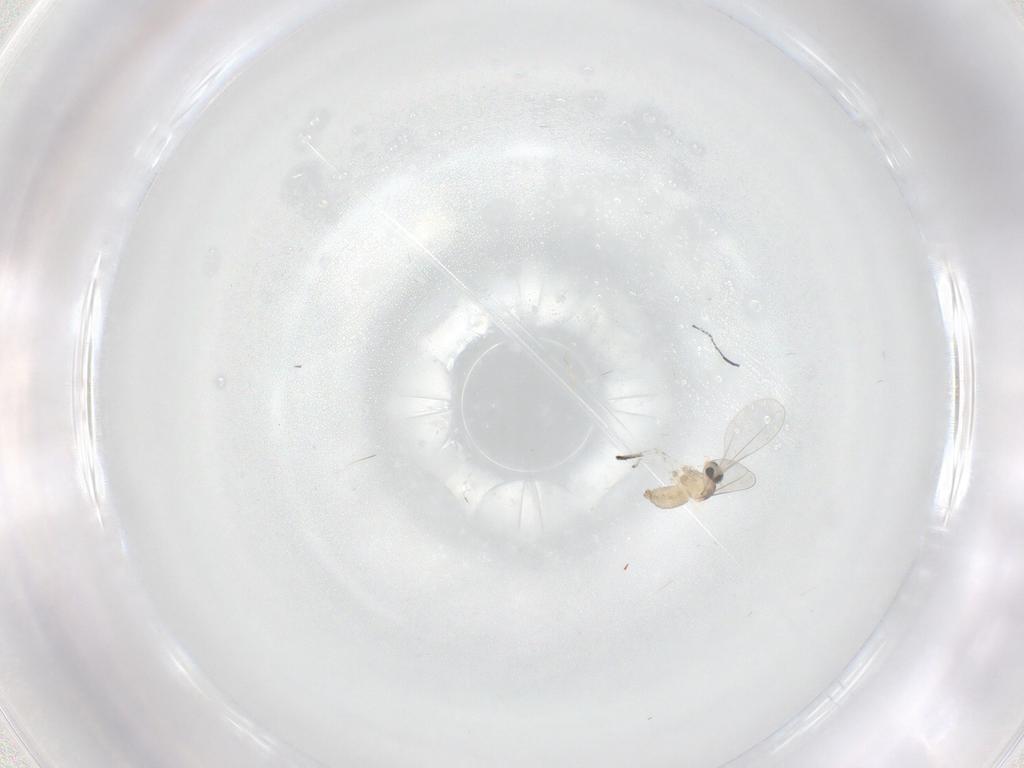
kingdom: Animalia
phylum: Arthropoda
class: Insecta
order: Diptera
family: Cecidomyiidae
